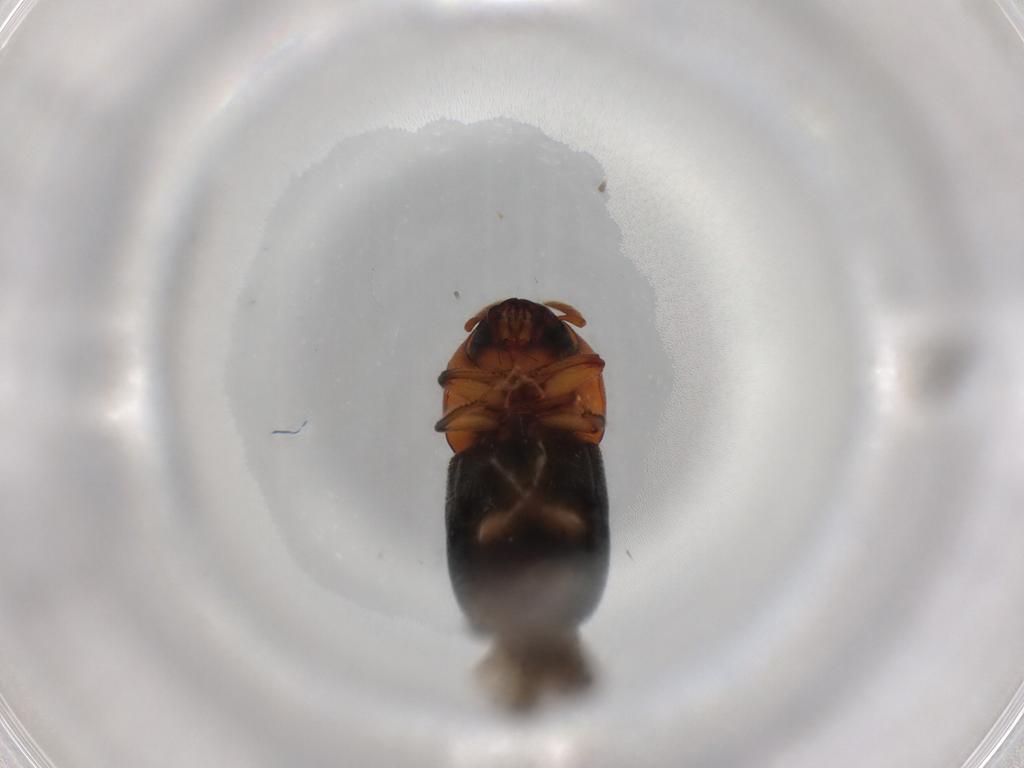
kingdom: Animalia
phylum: Arthropoda
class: Insecta
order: Coleoptera
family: Curculionidae
